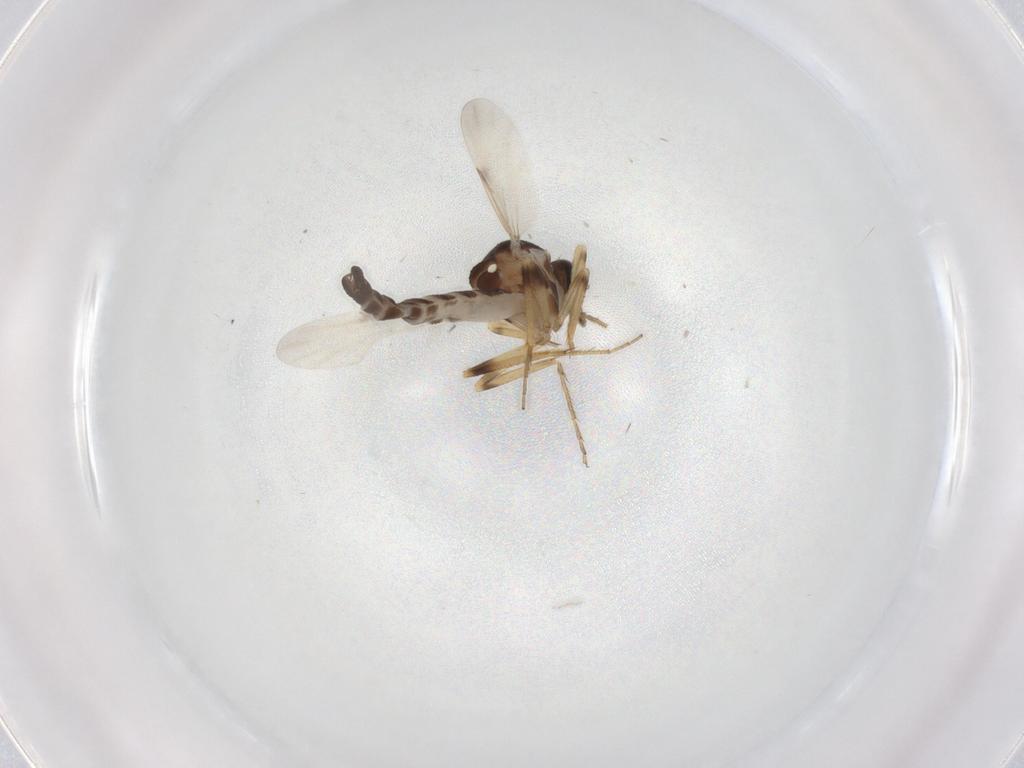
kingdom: Animalia
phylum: Arthropoda
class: Insecta
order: Diptera
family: Ceratopogonidae
